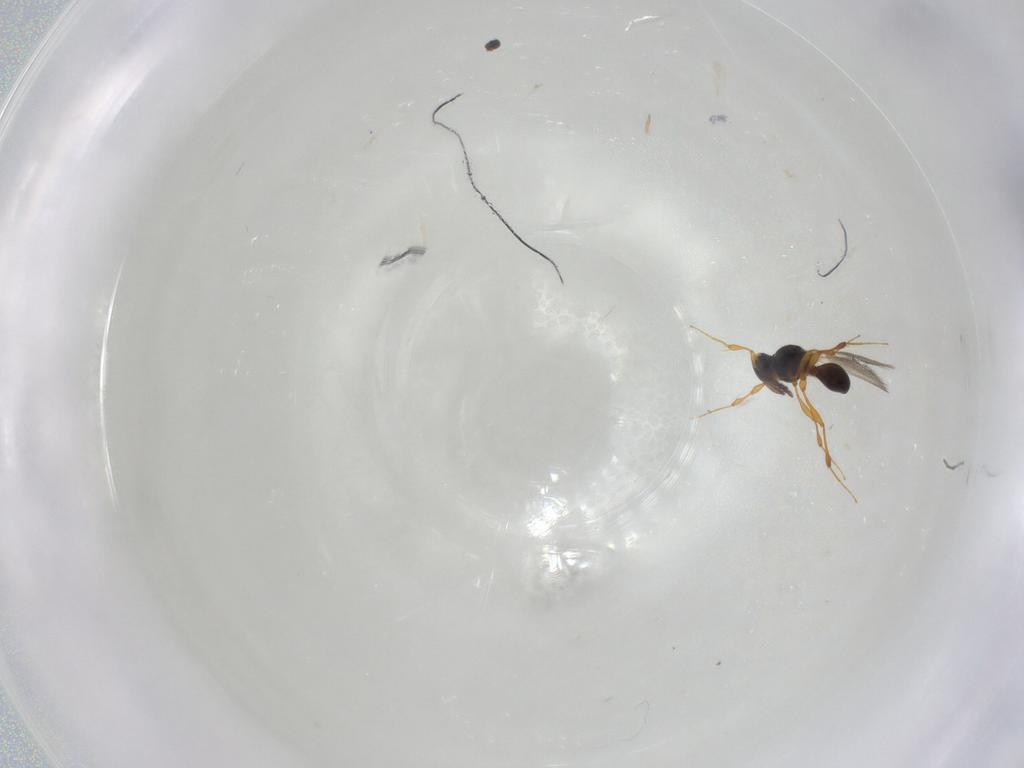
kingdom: Animalia
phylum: Arthropoda
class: Insecta
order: Hymenoptera
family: Platygastridae
